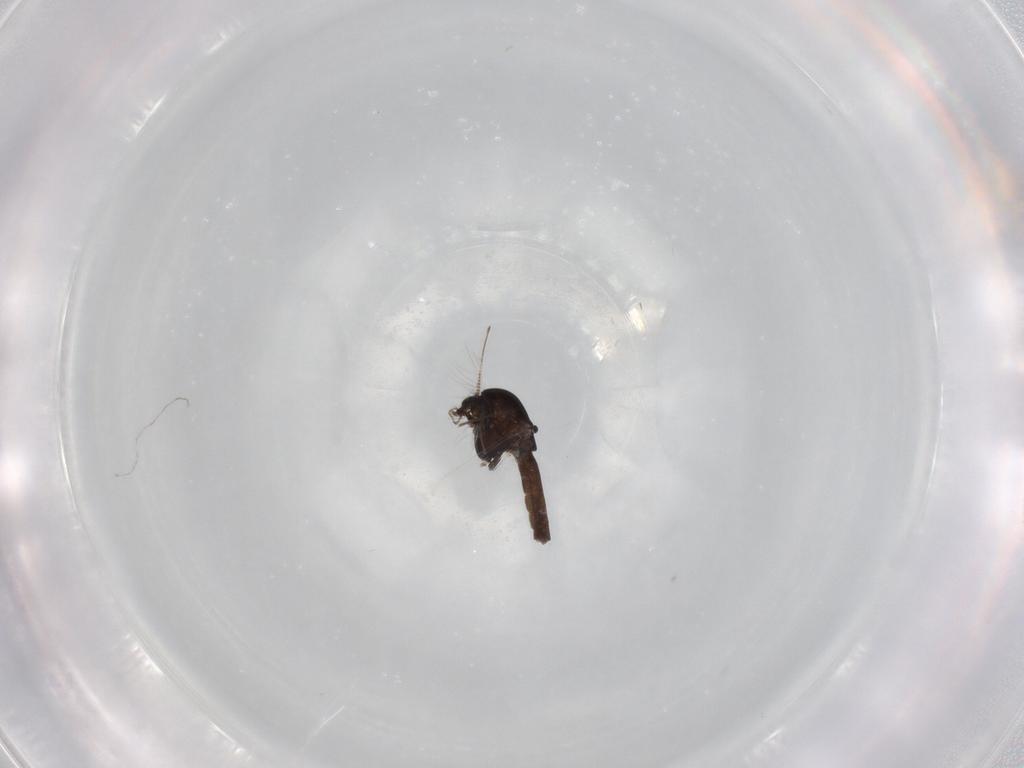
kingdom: Animalia
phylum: Arthropoda
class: Insecta
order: Diptera
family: Chironomidae
